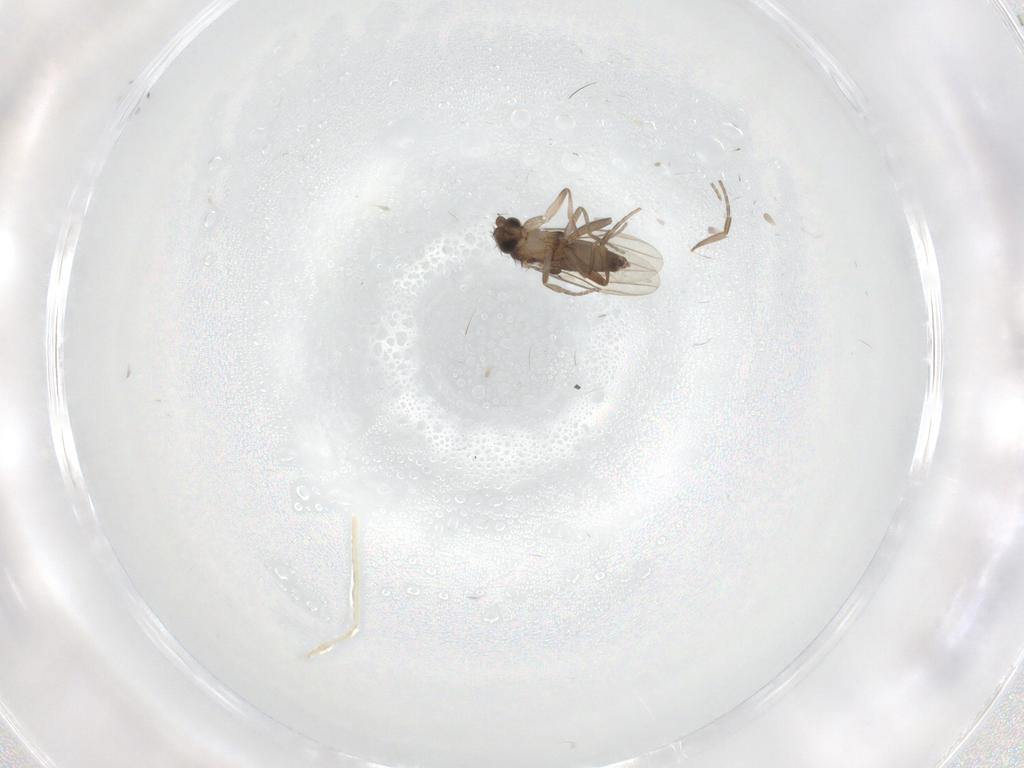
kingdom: Animalia
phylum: Arthropoda
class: Insecta
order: Diptera
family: Phoridae
